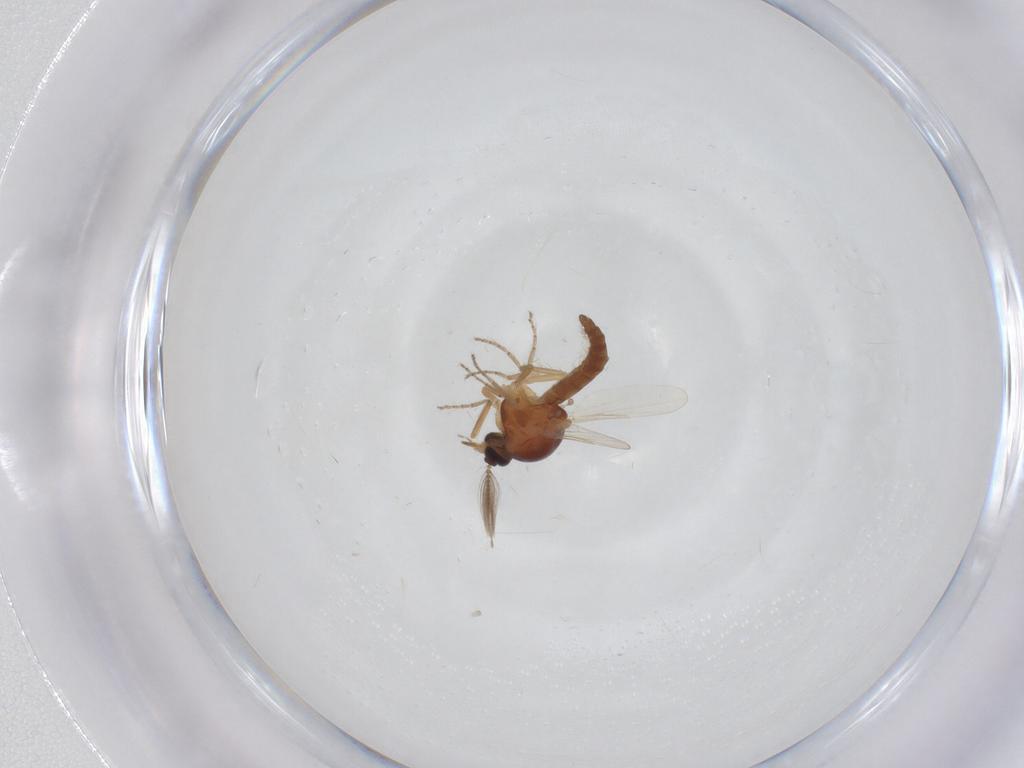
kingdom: Animalia
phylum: Arthropoda
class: Insecta
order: Diptera
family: Ceratopogonidae
